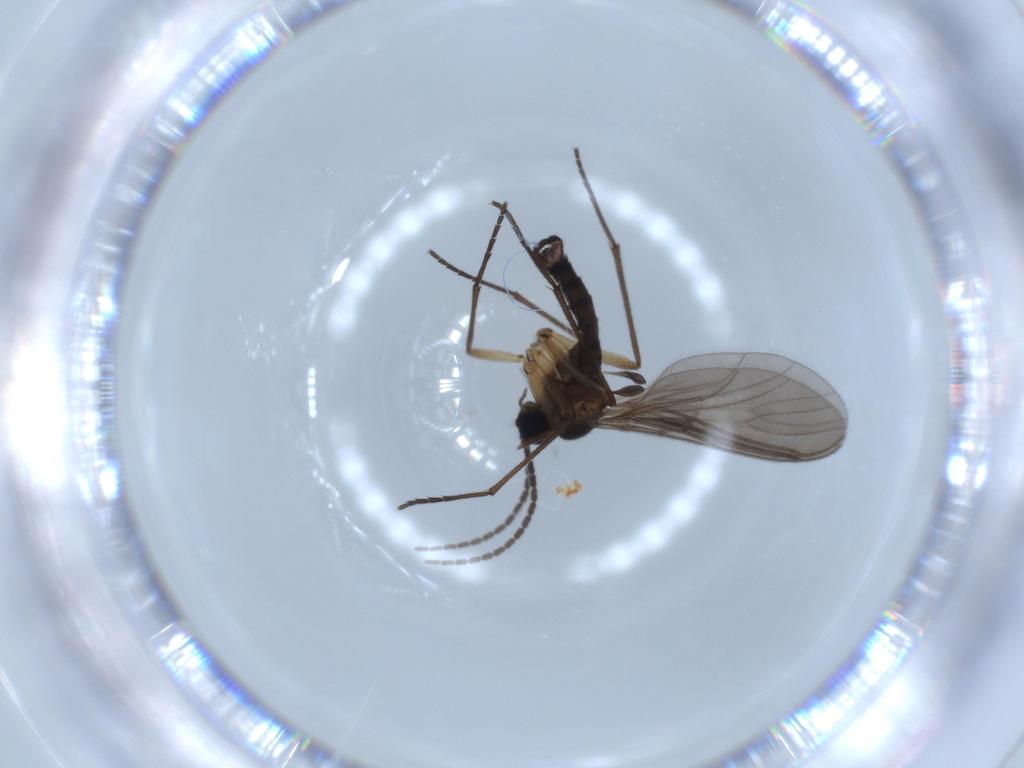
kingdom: Animalia
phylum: Arthropoda
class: Insecta
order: Diptera
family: Sciaridae
